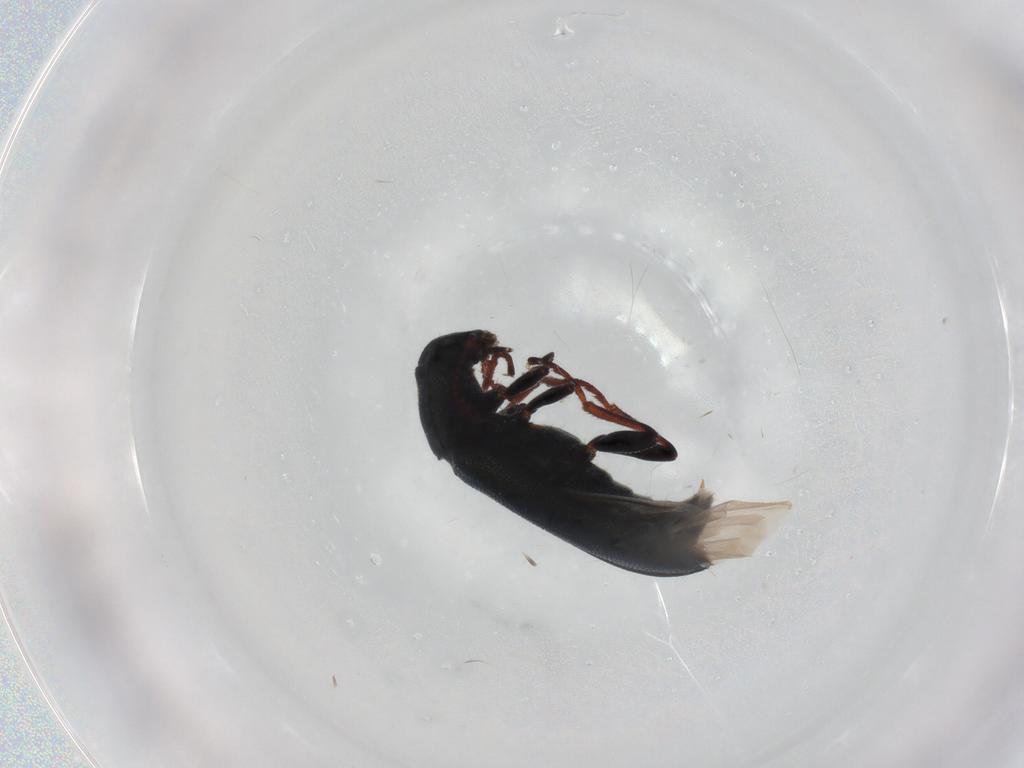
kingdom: Animalia
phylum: Arthropoda
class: Insecta
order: Coleoptera
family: Melyridae
